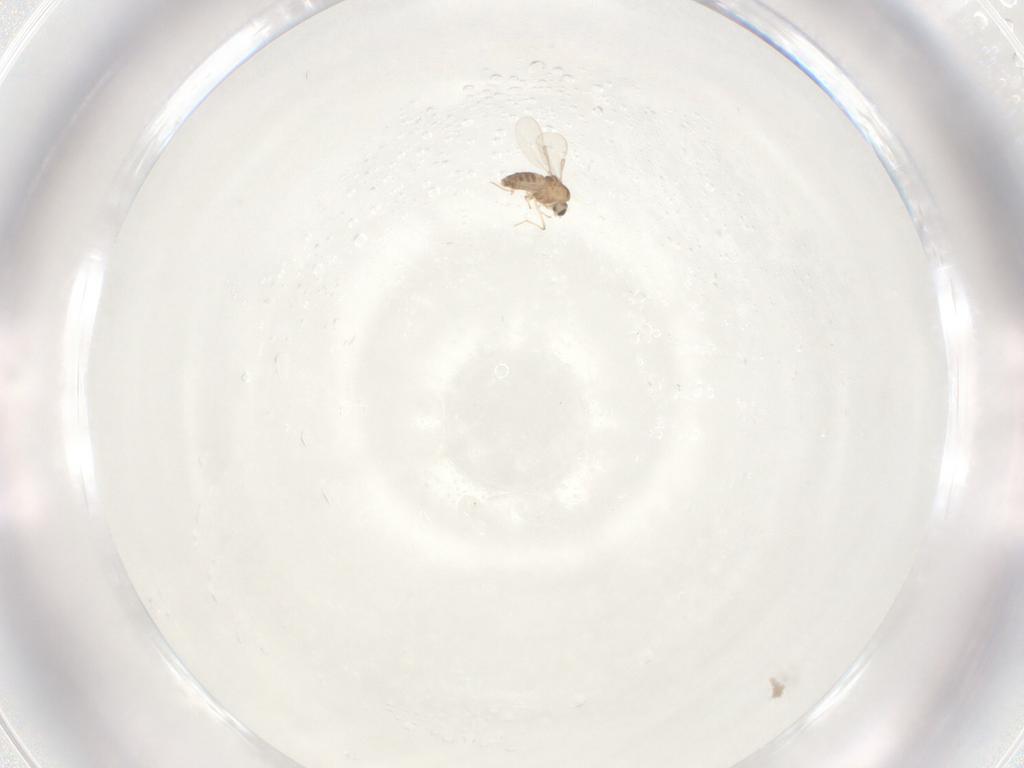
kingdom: Animalia
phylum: Arthropoda
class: Insecta
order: Diptera
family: Chironomidae
